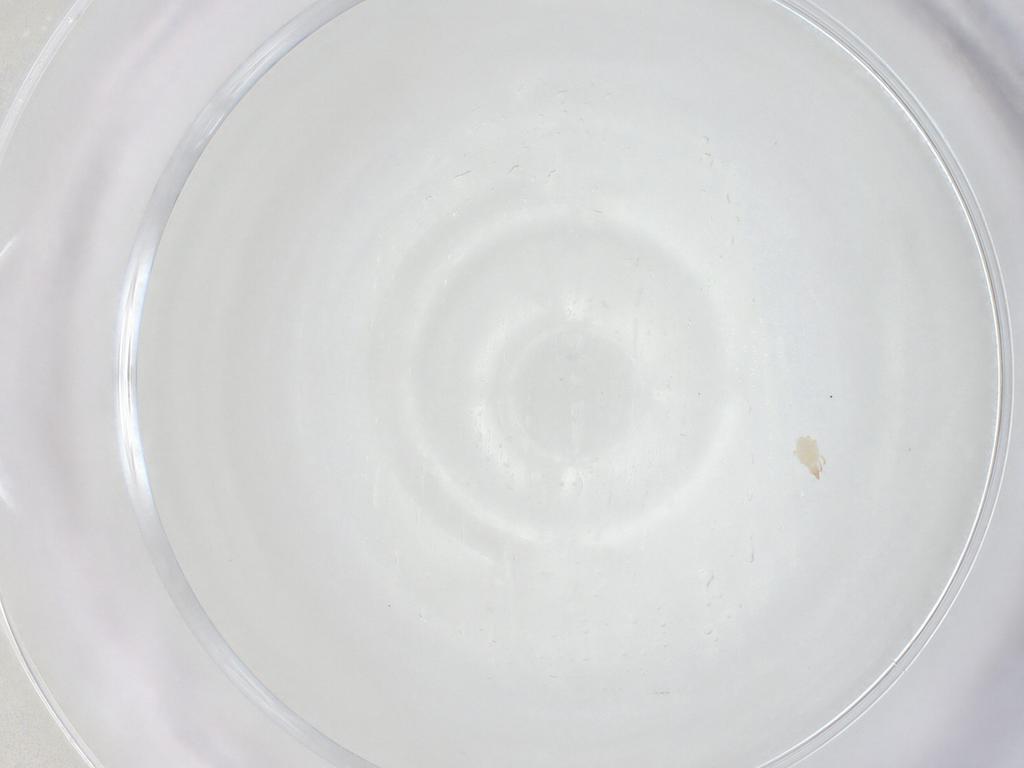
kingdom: Animalia
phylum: Arthropoda
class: Arachnida
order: Trombidiformes
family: Cunaxidae
